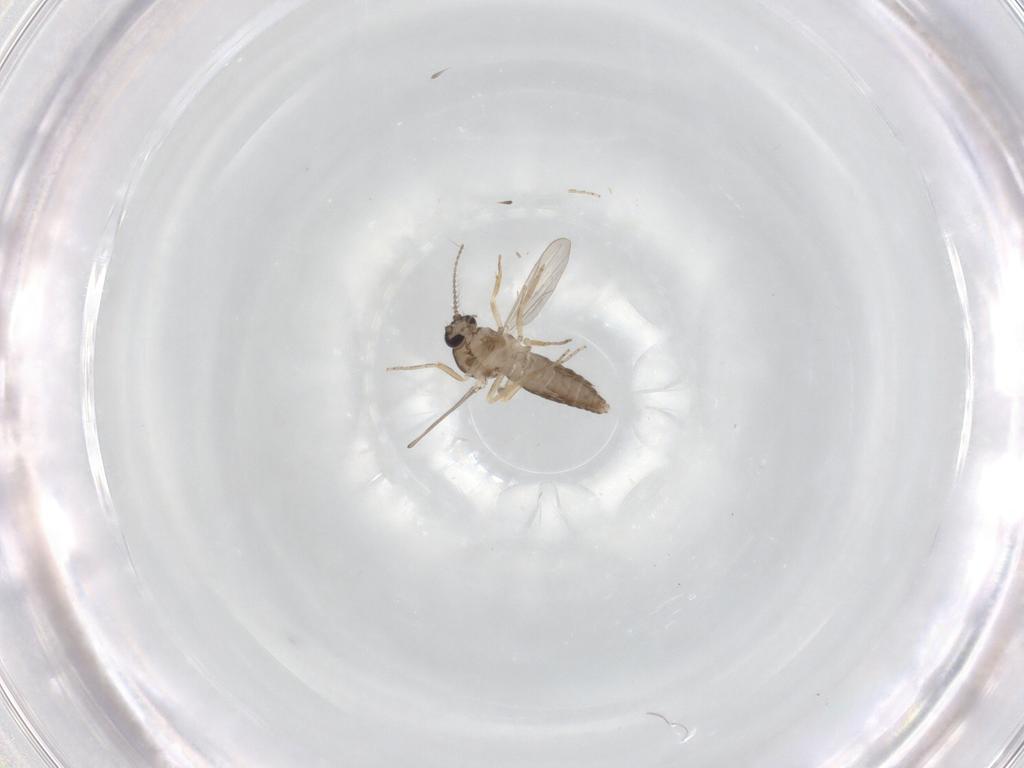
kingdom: Animalia
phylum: Arthropoda
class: Insecta
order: Diptera
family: Ceratopogonidae
